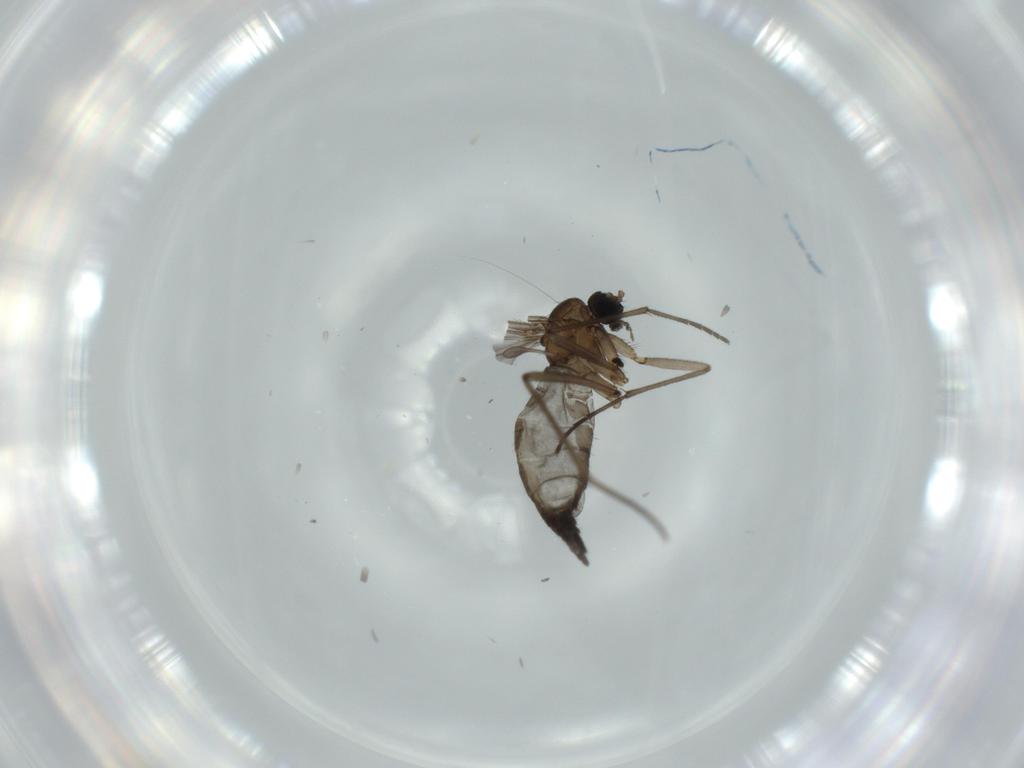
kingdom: Animalia
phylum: Arthropoda
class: Insecta
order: Diptera
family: Sciaridae
